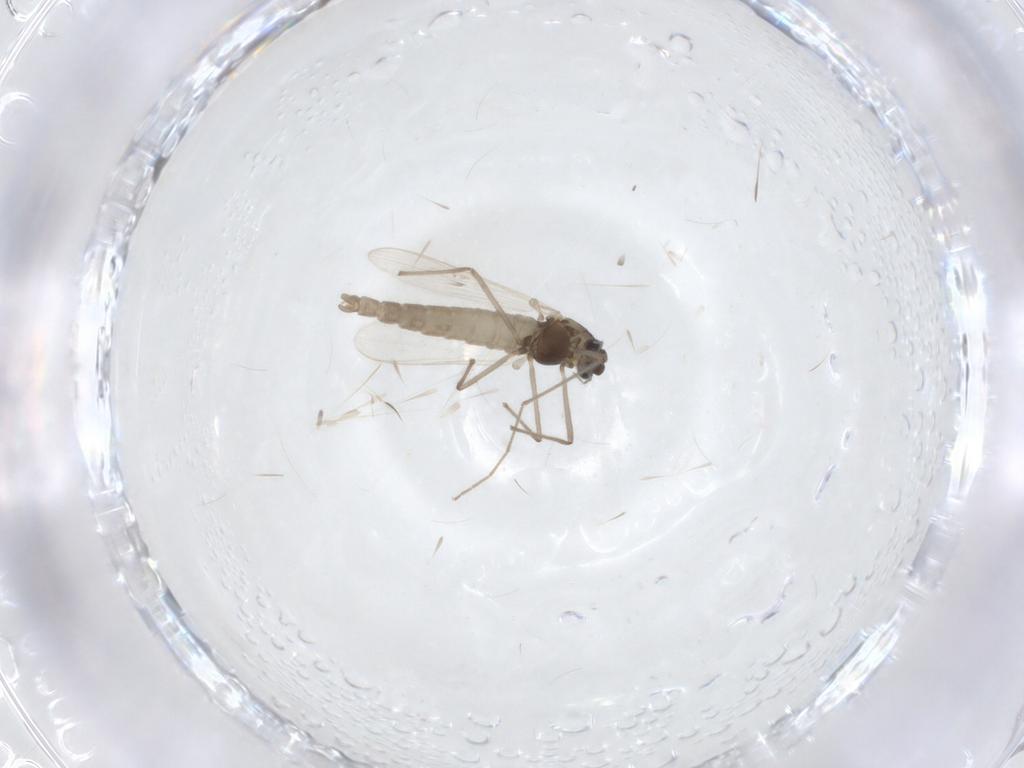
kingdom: Animalia
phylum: Arthropoda
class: Insecta
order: Diptera
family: Chironomidae
